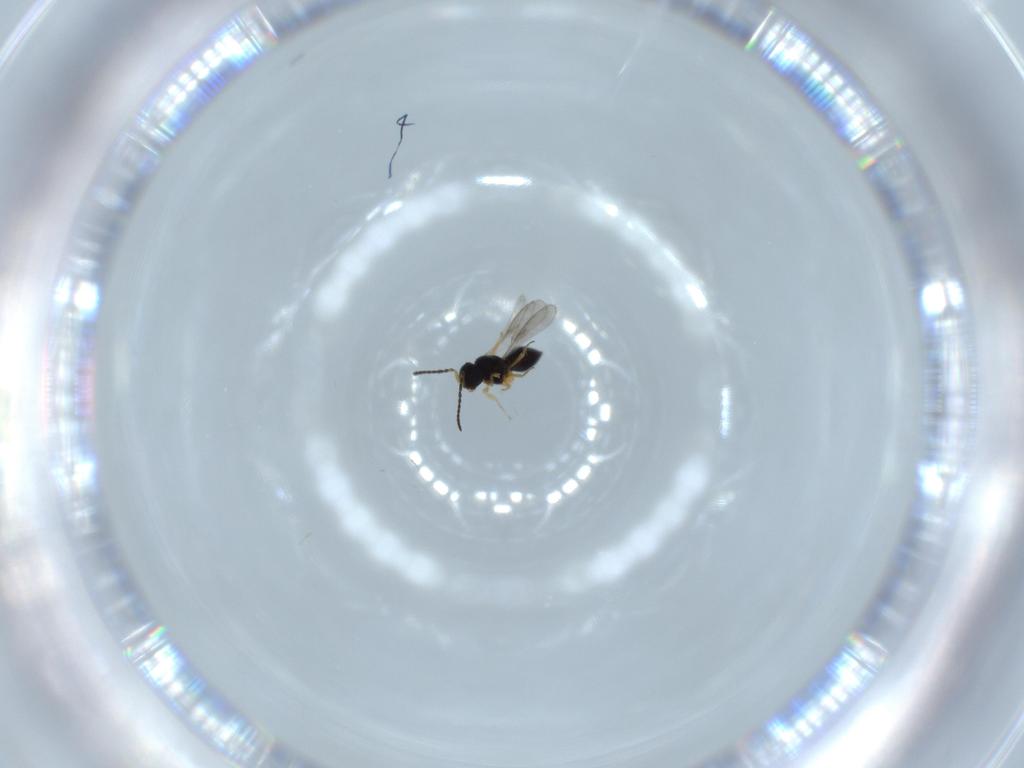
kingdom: Animalia
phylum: Arthropoda
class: Insecta
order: Hymenoptera
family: Scelionidae
